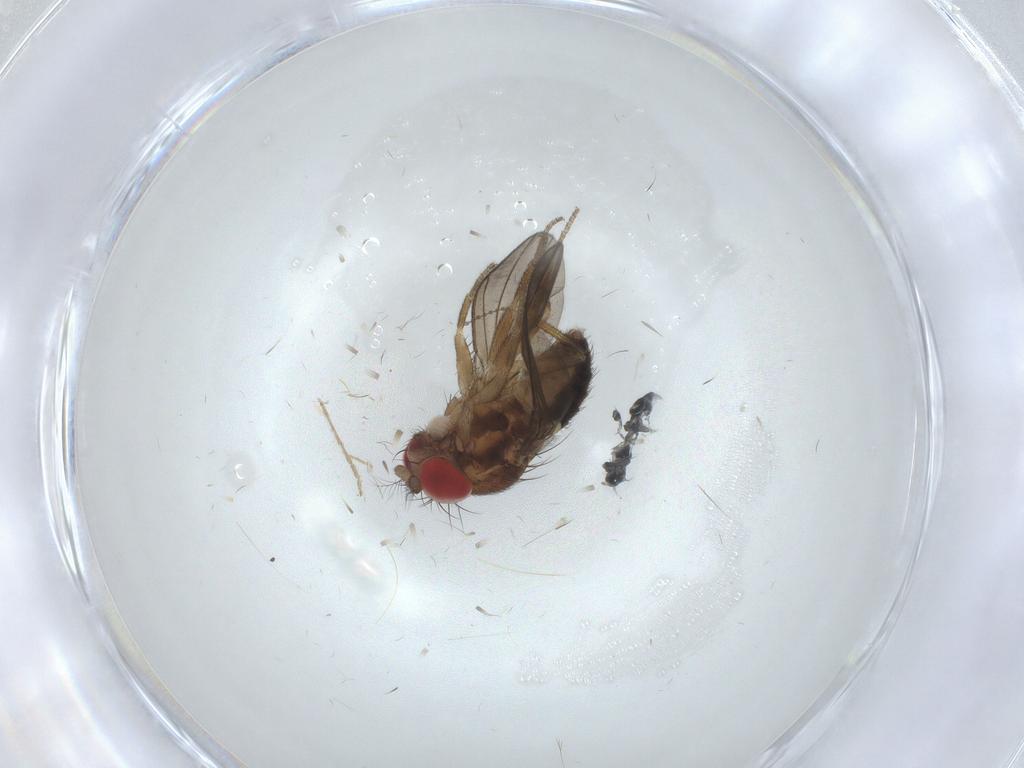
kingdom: Animalia
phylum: Arthropoda
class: Insecta
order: Diptera
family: Drosophilidae
